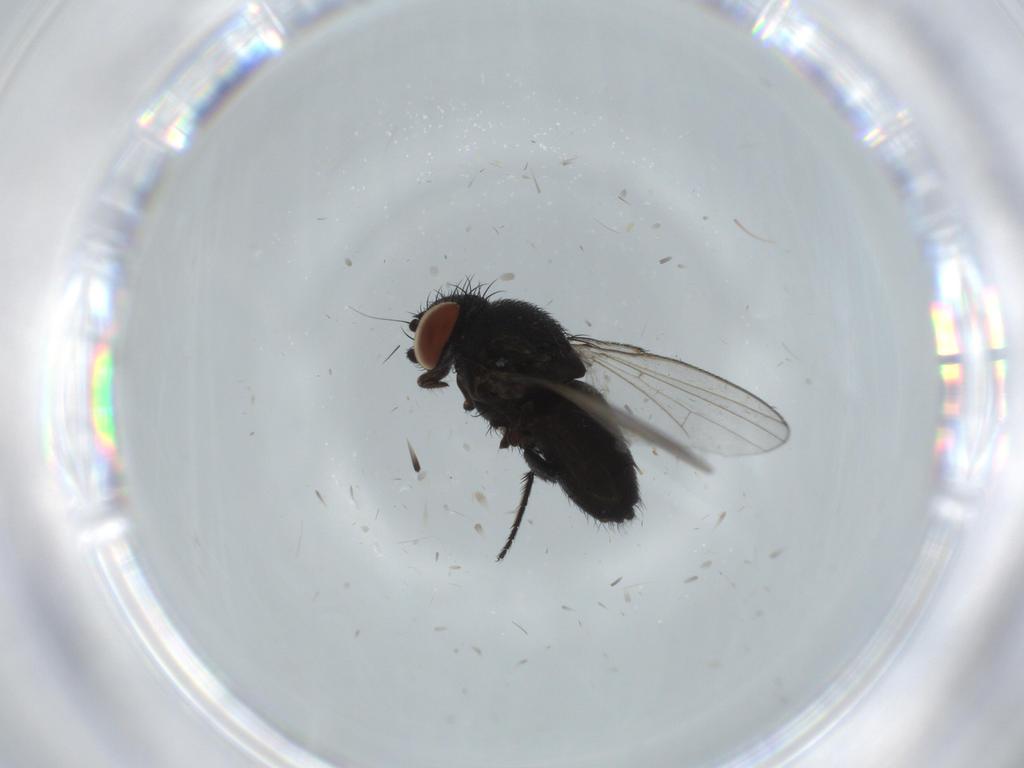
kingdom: Animalia
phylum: Arthropoda
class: Insecta
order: Diptera
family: Milichiidae
